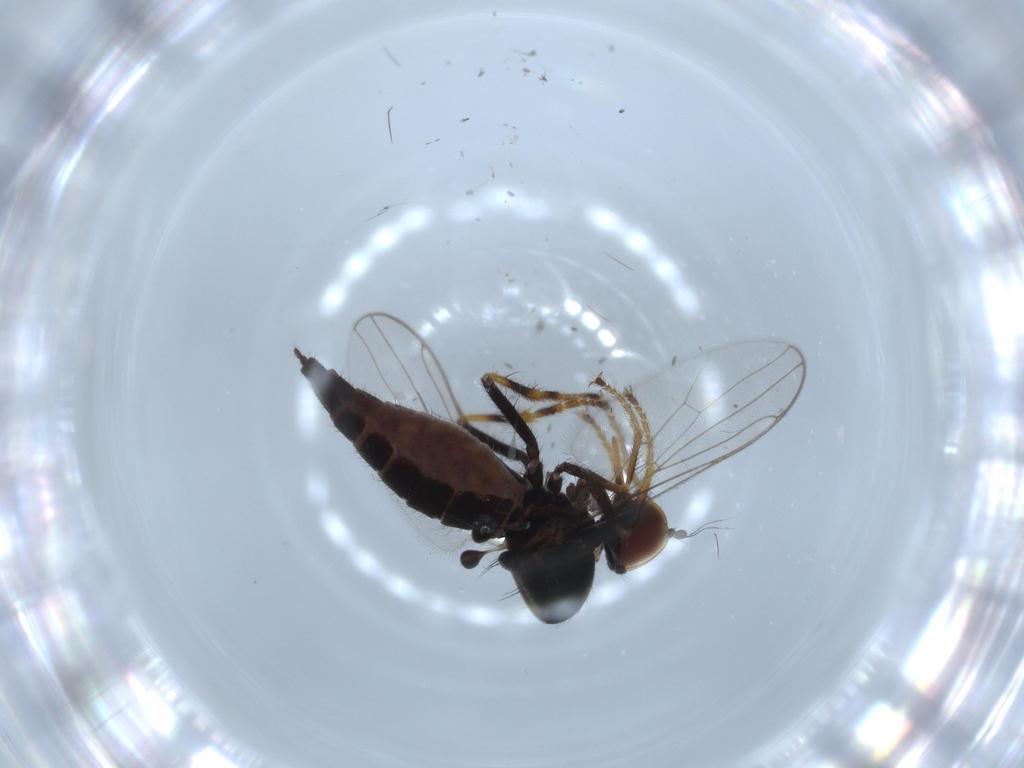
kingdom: Animalia
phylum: Arthropoda
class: Insecta
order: Diptera
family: Hybotidae
